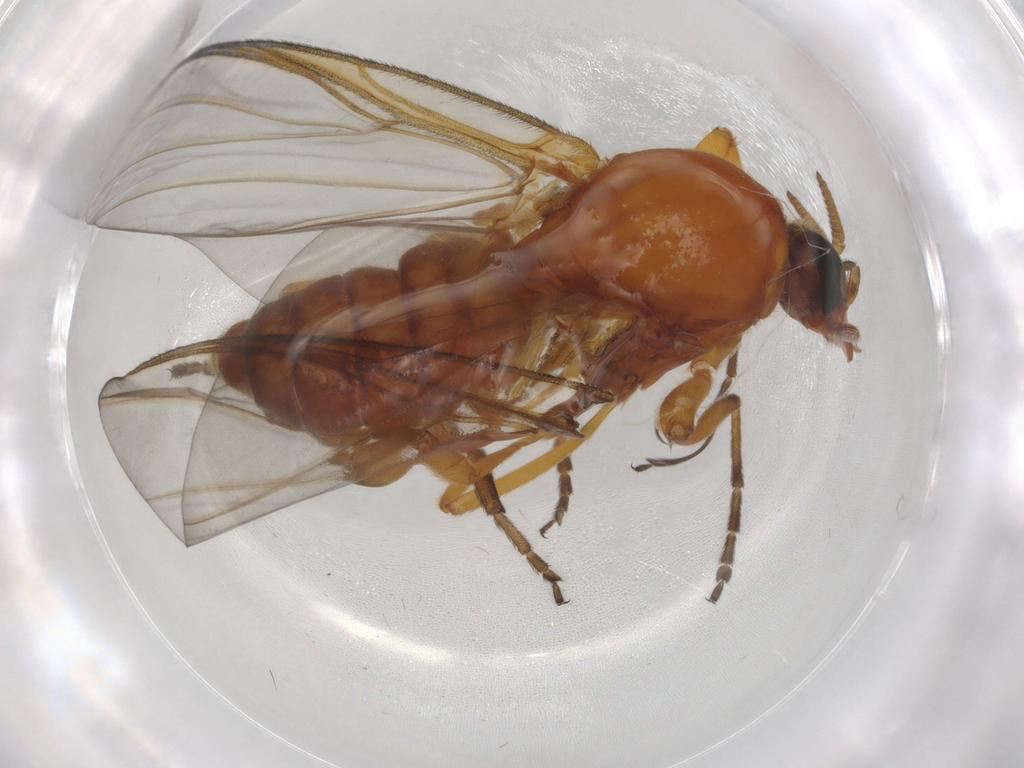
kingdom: Animalia
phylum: Arthropoda
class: Insecta
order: Diptera
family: Simuliidae
